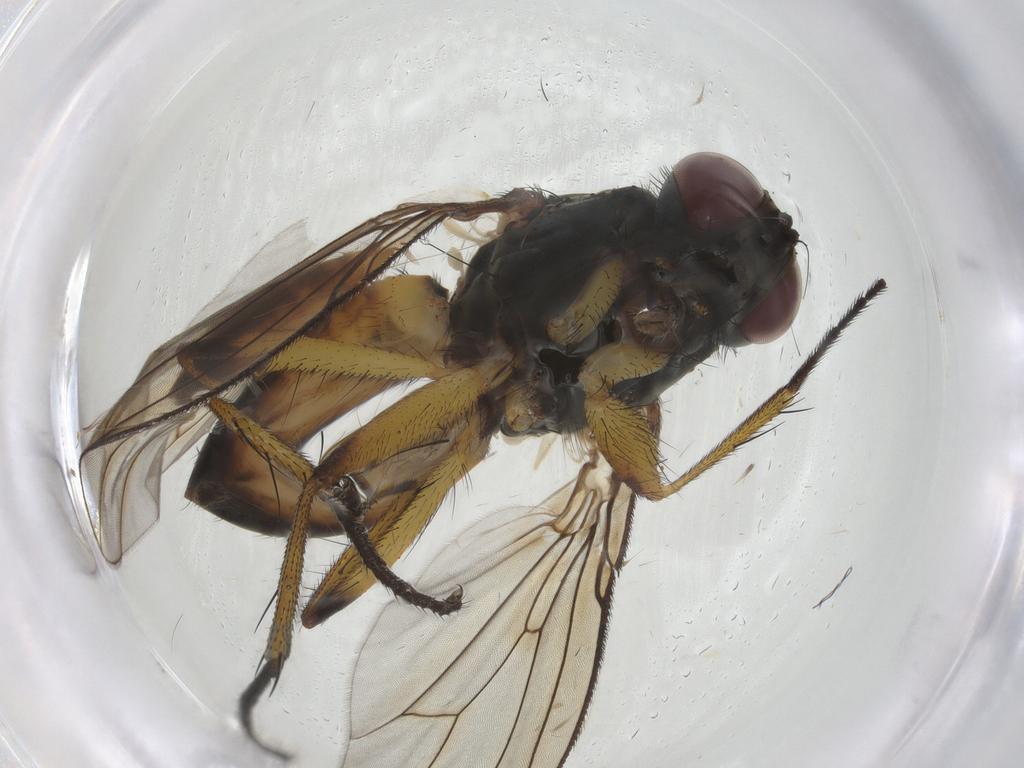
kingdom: Animalia
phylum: Arthropoda
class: Insecta
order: Diptera
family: Muscidae
